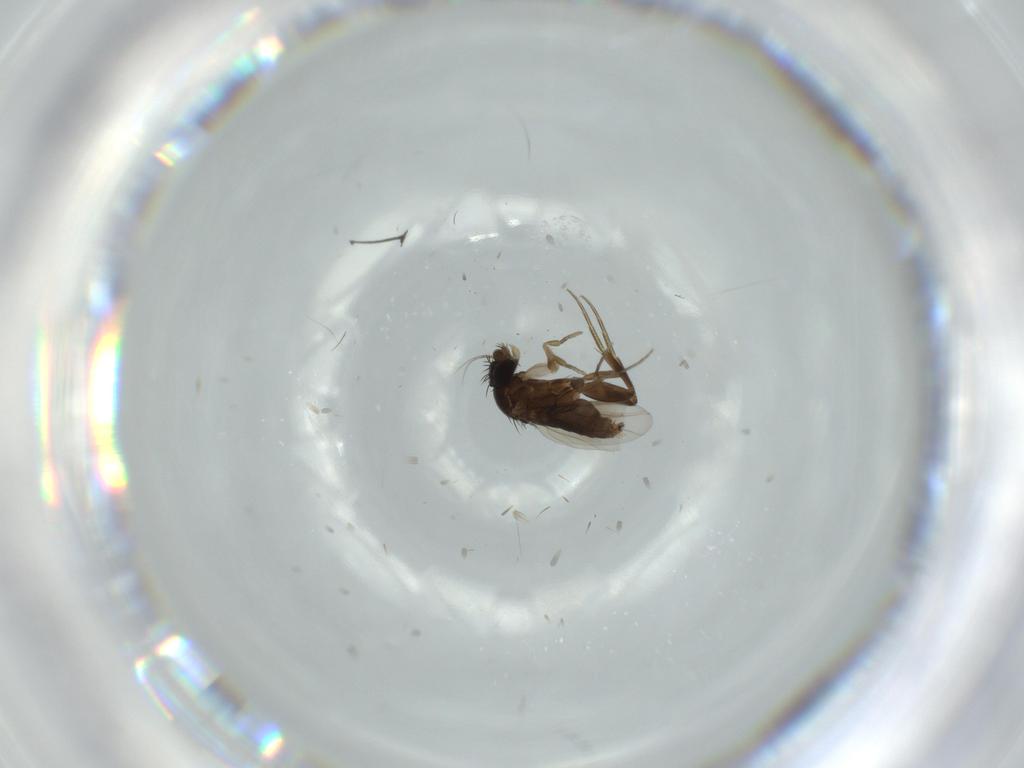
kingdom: Animalia
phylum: Arthropoda
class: Insecta
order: Diptera
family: Phoridae
